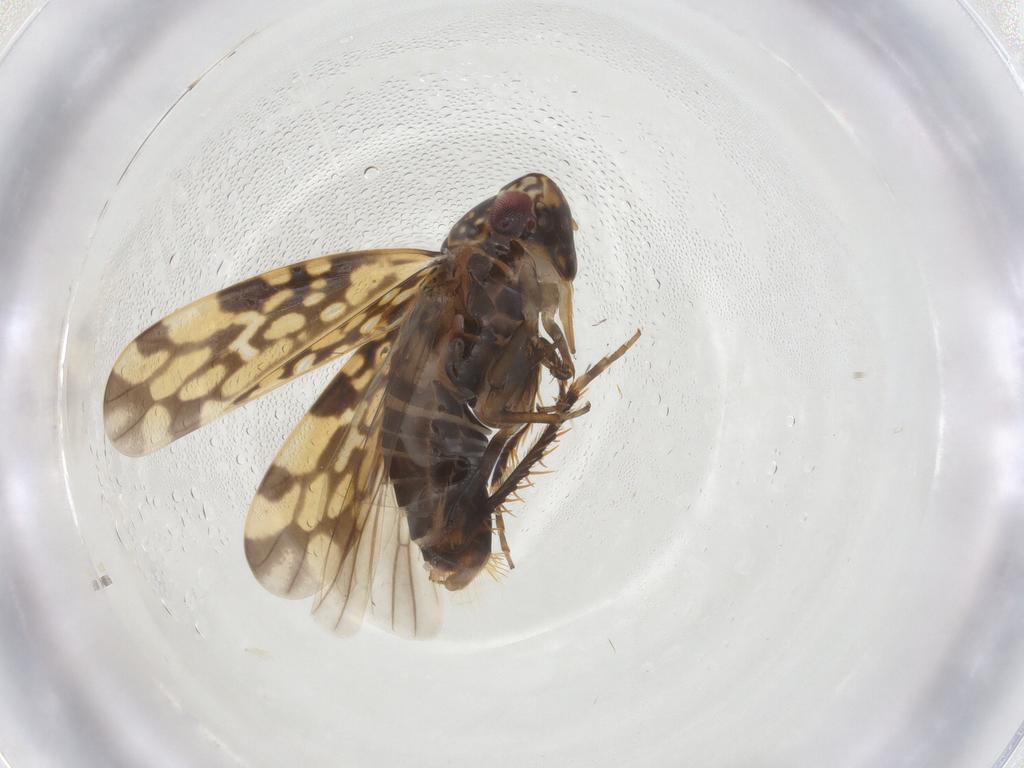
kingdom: Animalia
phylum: Arthropoda
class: Insecta
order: Hemiptera
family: Cicadellidae
